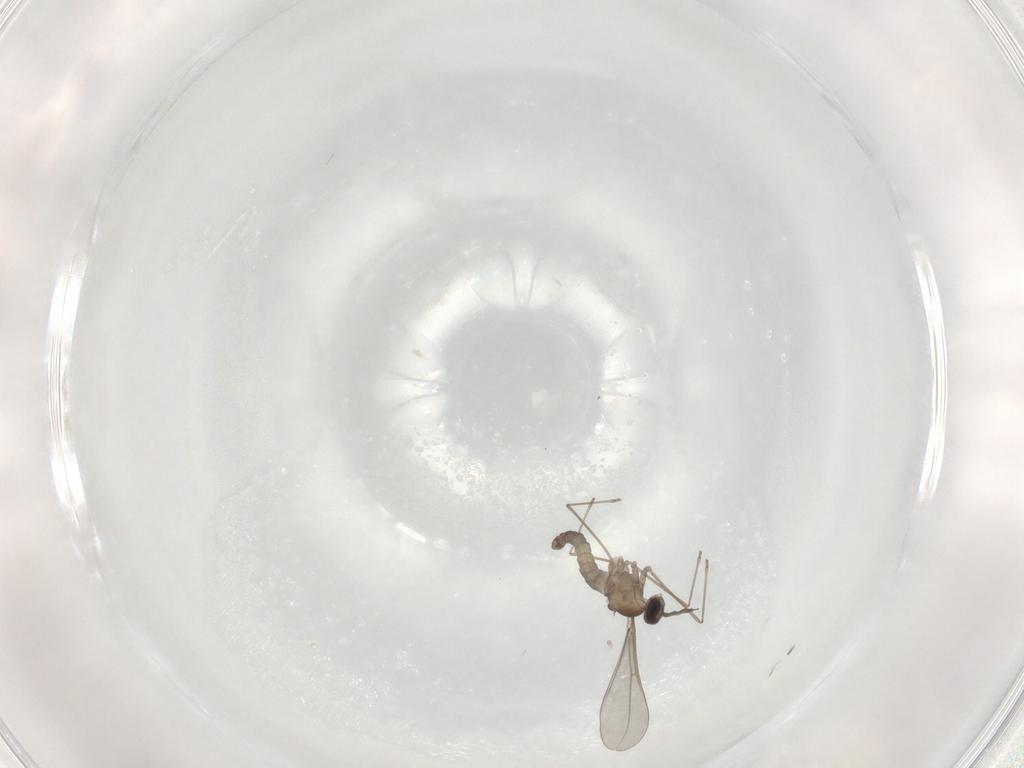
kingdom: Animalia
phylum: Arthropoda
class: Insecta
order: Diptera
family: Cecidomyiidae
